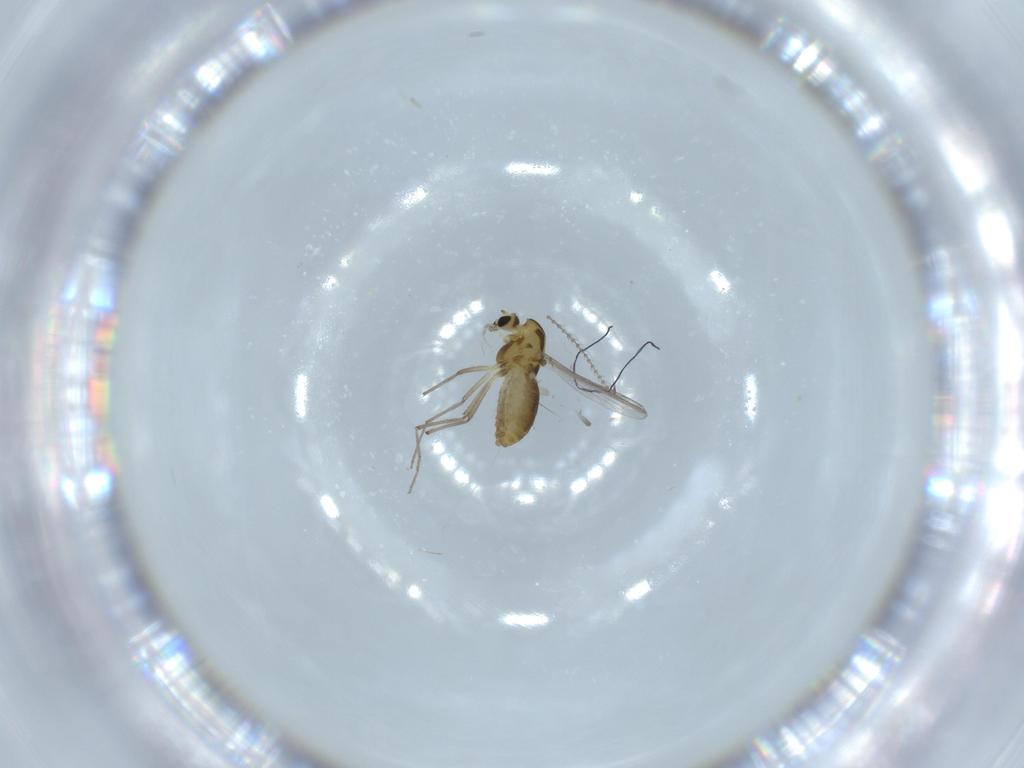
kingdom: Animalia
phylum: Arthropoda
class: Insecta
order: Diptera
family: Chironomidae
